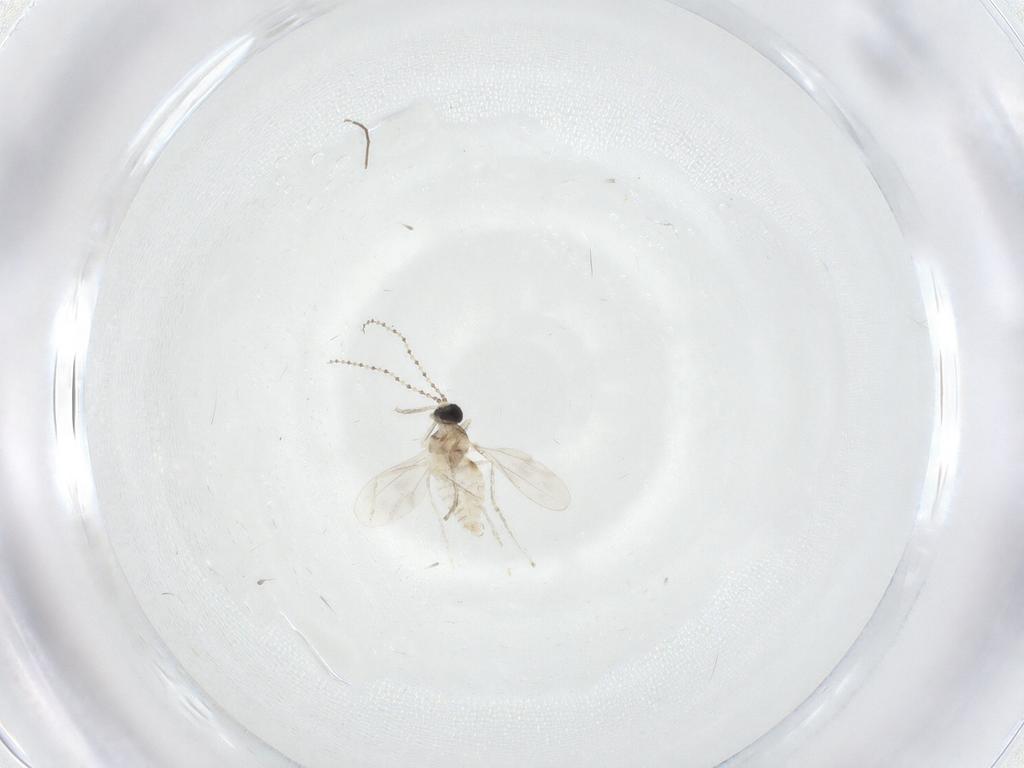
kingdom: Animalia
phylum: Arthropoda
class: Insecta
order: Diptera
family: Cecidomyiidae
